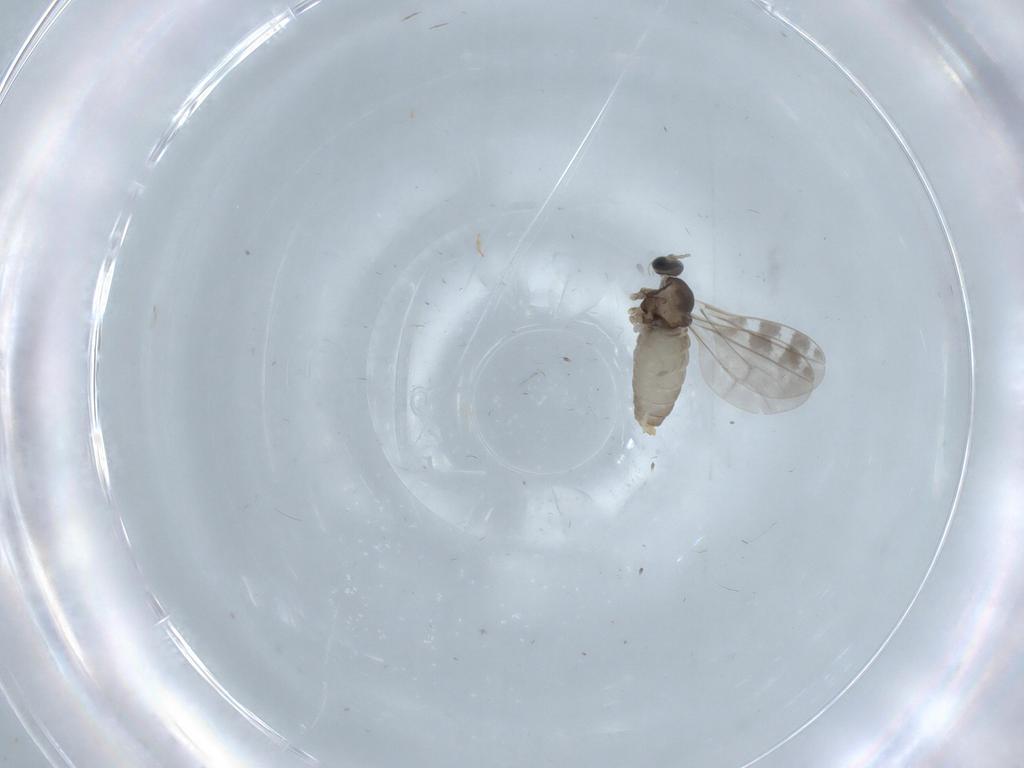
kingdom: Animalia
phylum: Arthropoda
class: Insecta
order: Diptera
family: Cecidomyiidae
